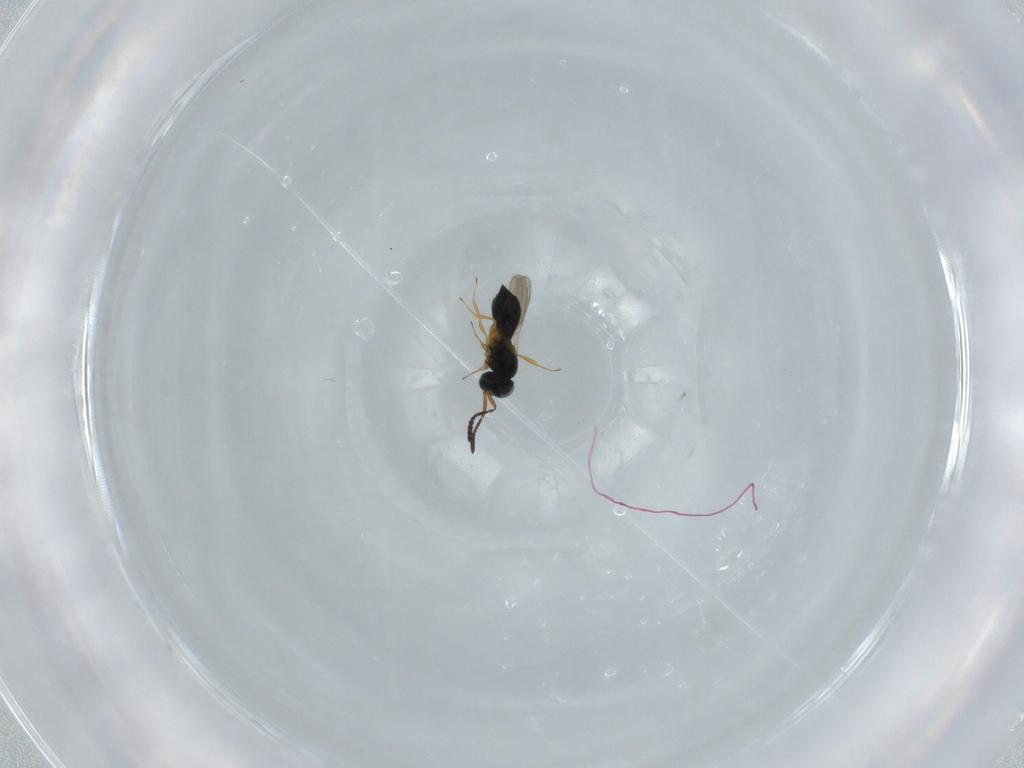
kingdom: Animalia
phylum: Arthropoda
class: Insecta
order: Hymenoptera
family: Scelionidae
